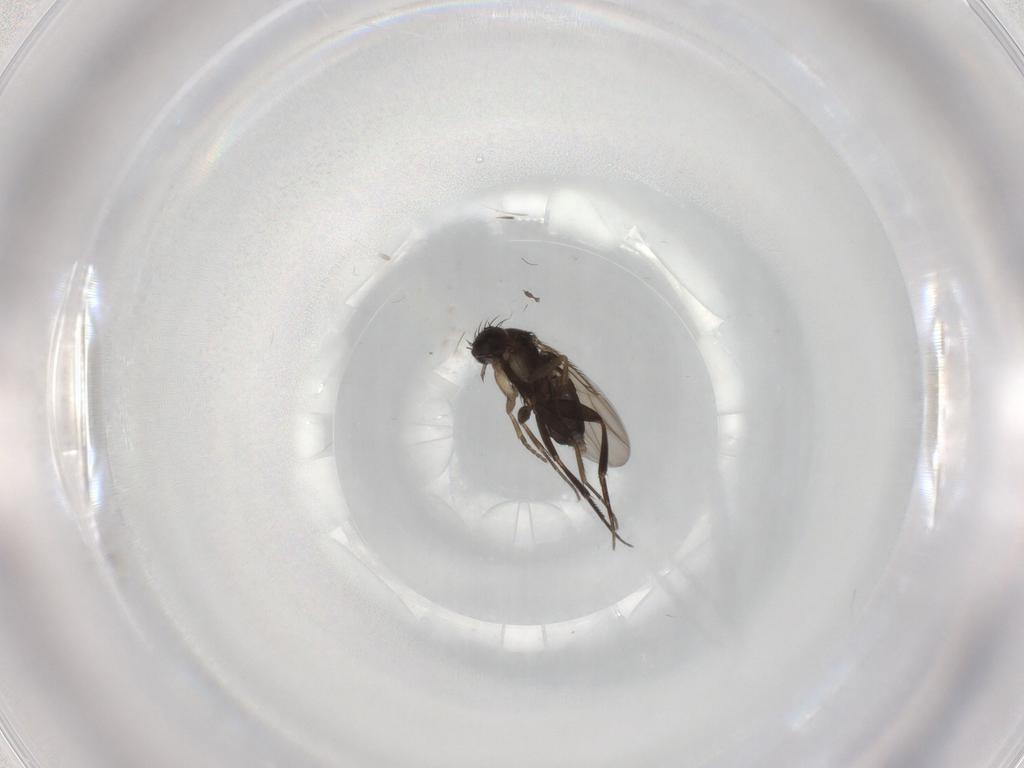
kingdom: Animalia
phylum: Arthropoda
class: Insecta
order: Diptera
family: Phoridae
